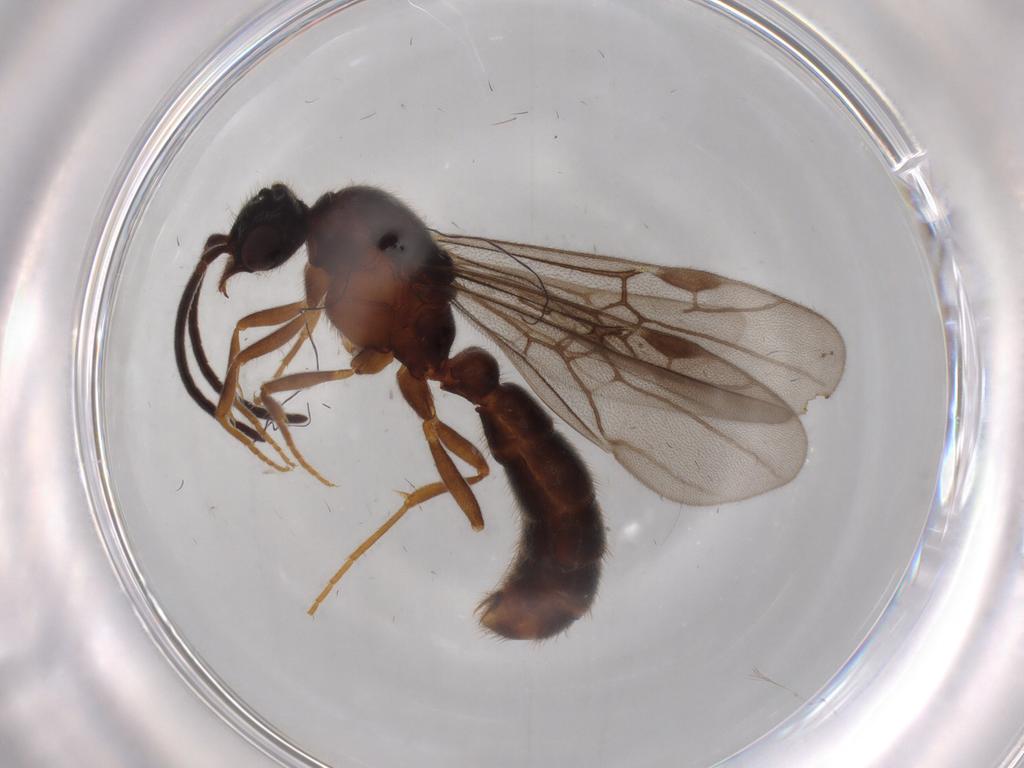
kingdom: Animalia
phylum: Arthropoda
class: Insecta
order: Hymenoptera
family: Formicidae
